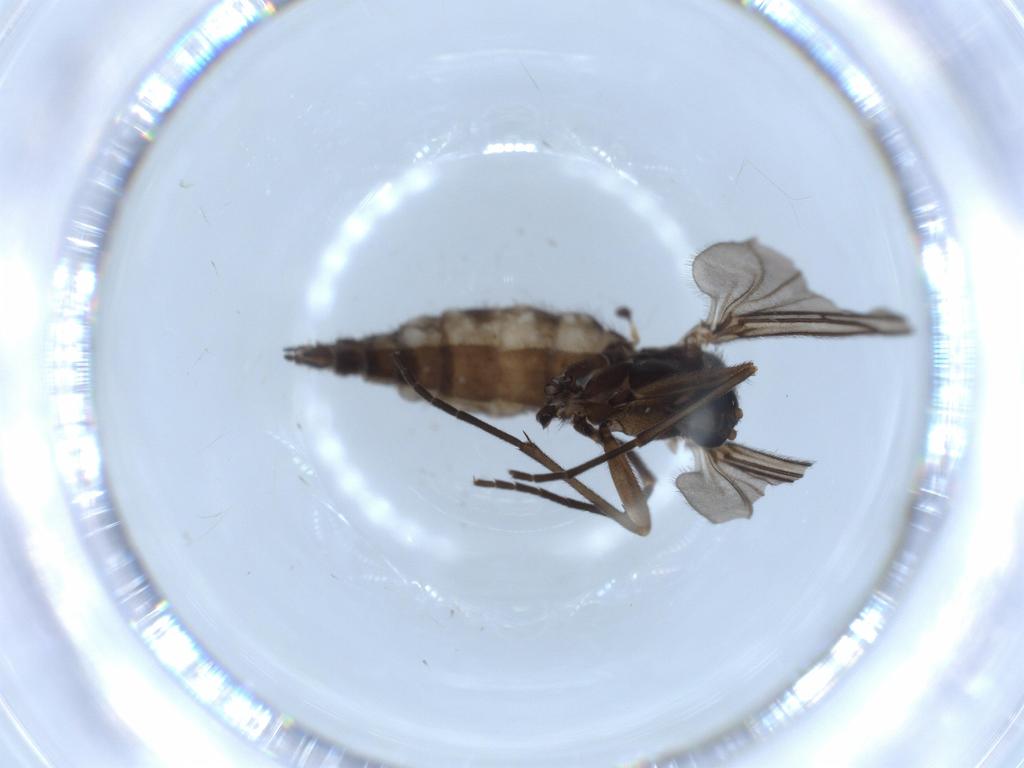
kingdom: Animalia
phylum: Arthropoda
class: Insecta
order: Diptera
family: Sciaridae
